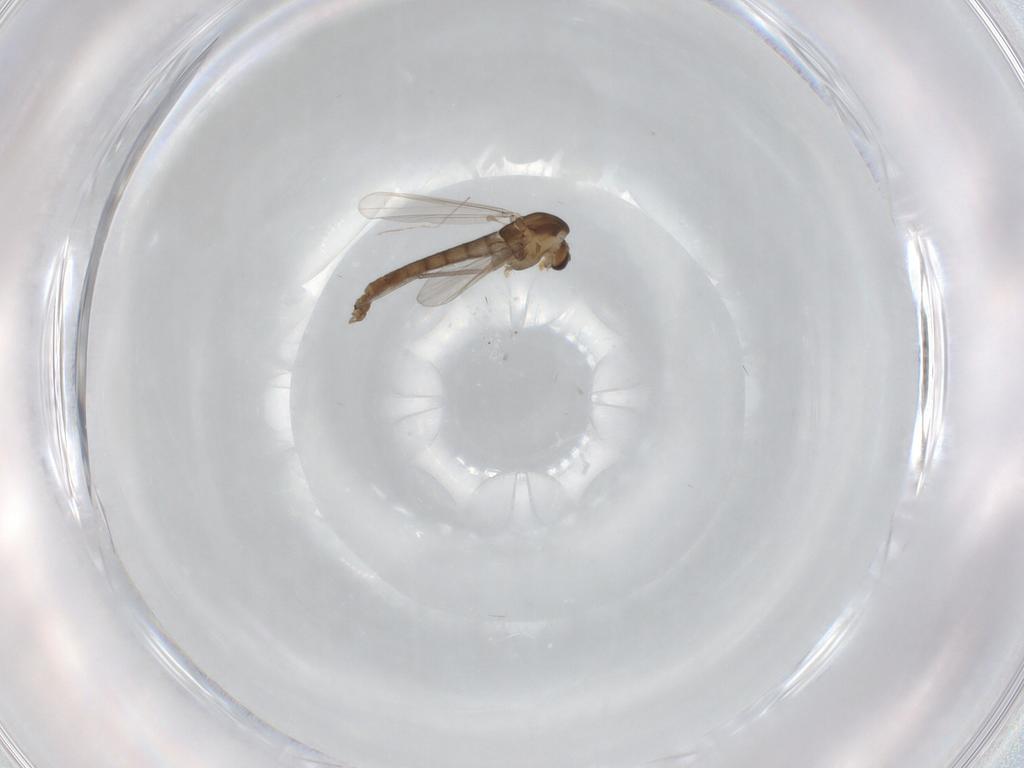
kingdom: Animalia
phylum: Arthropoda
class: Insecta
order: Diptera
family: Chironomidae
